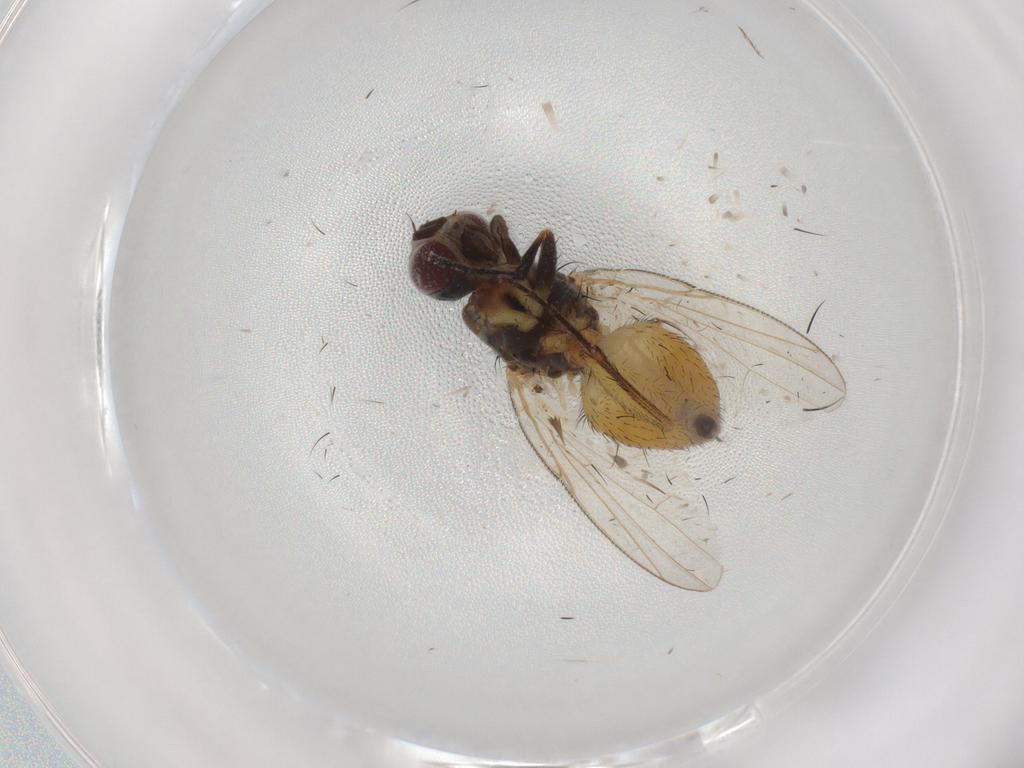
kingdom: Animalia
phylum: Arthropoda
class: Insecta
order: Diptera
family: Muscidae
